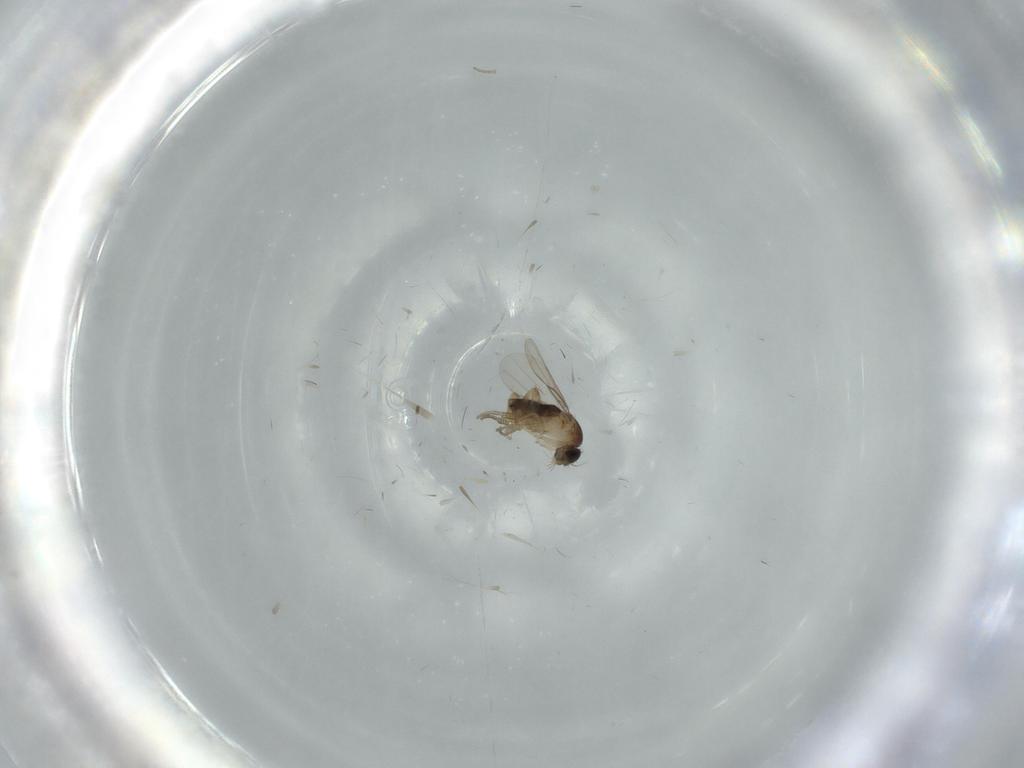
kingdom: Animalia
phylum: Arthropoda
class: Insecta
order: Diptera
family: Phoridae
